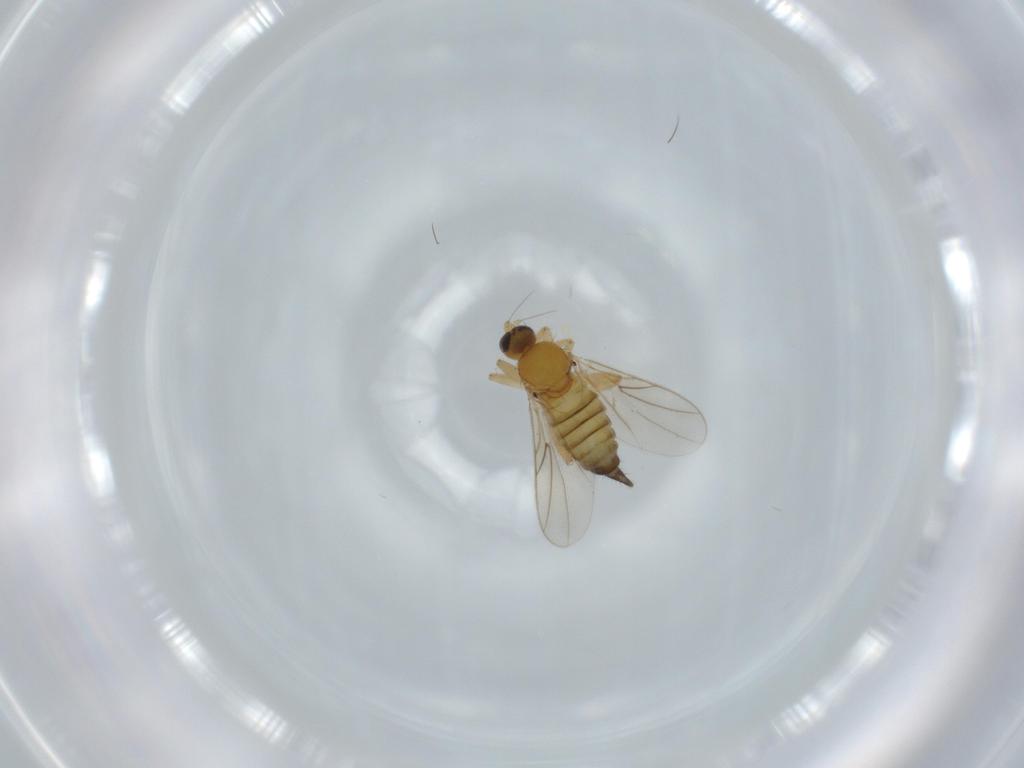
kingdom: Animalia
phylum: Arthropoda
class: Insecta
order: Diptera
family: Hybotidae
